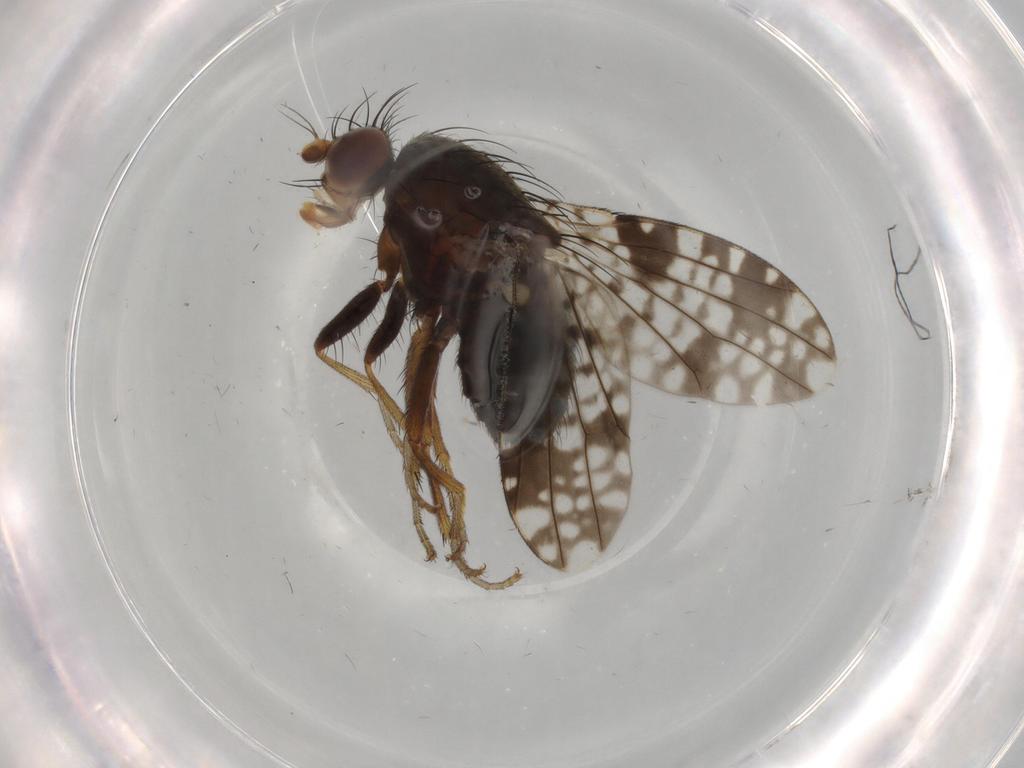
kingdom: Animalia
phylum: Arthropoda
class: Insecta
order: Diptera
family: Tephritidae
